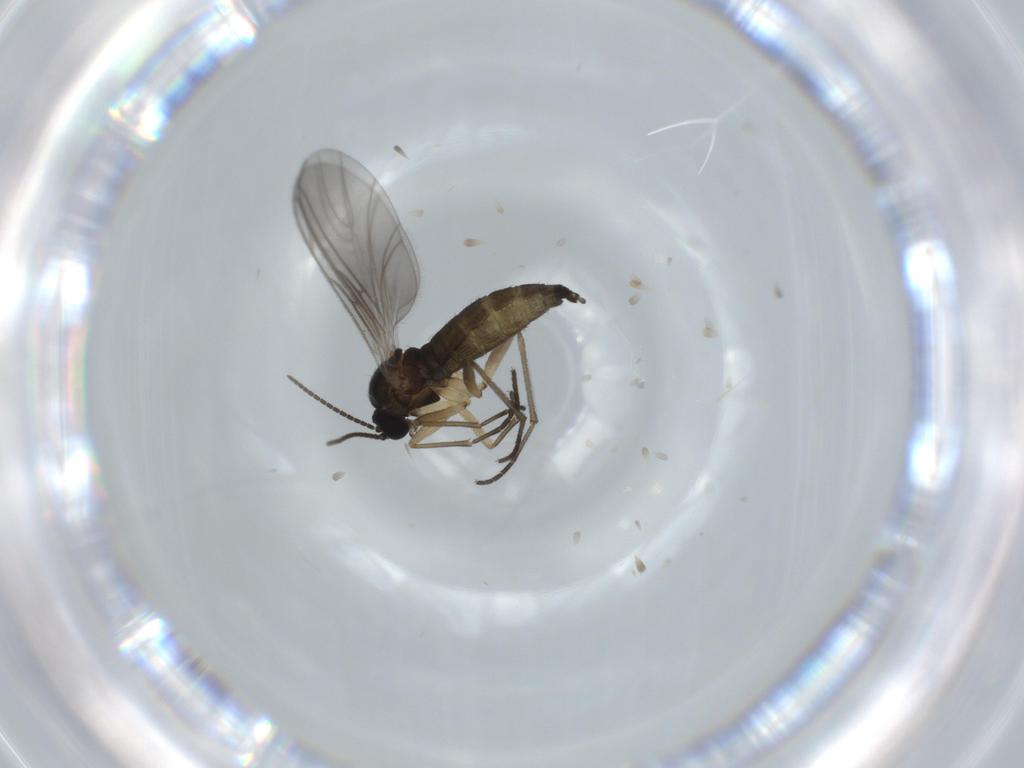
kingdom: Animalia
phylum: Arthropoda
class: Insecta
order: Diptera
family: Sciaridae
